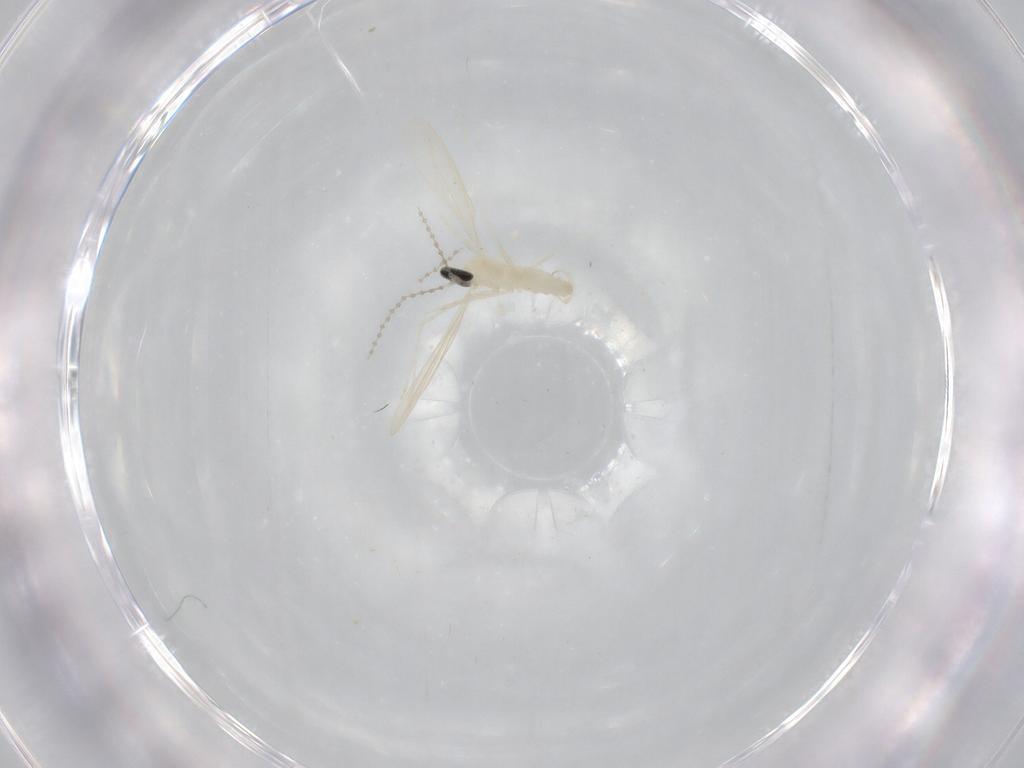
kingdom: Animalia
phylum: Arthropoda
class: Insecta
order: Diptera
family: Cecidomyiidae
